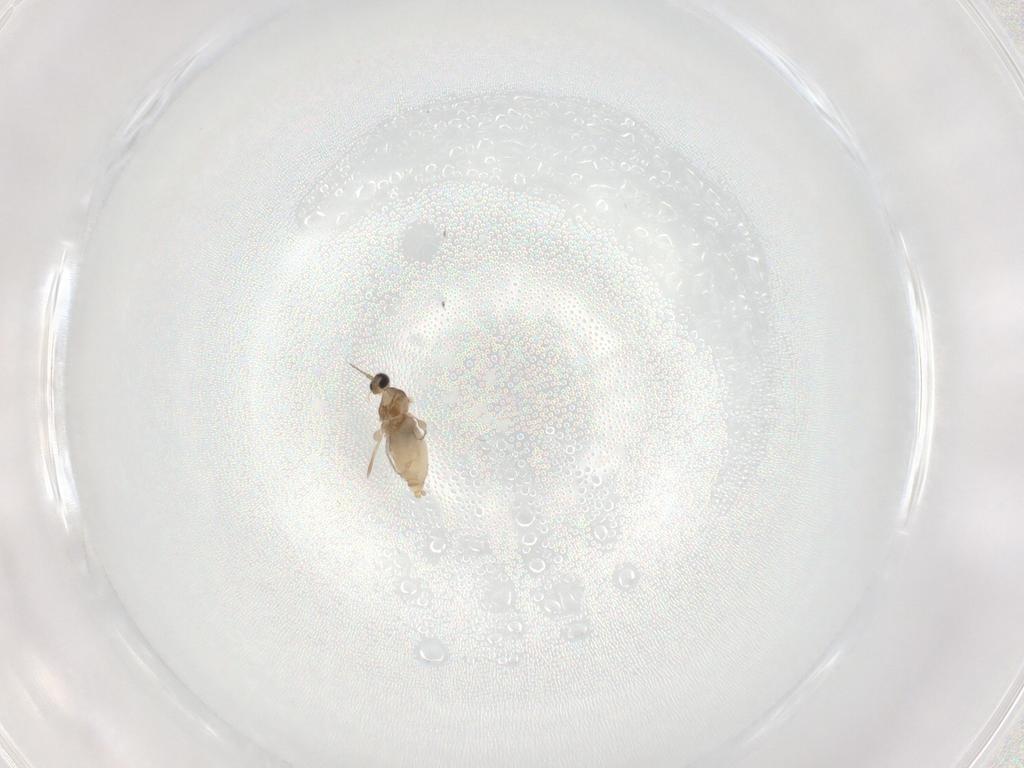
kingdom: Animalia
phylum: Arthropoda
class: Insecta
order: Diptera
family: Cecidomyiidae
